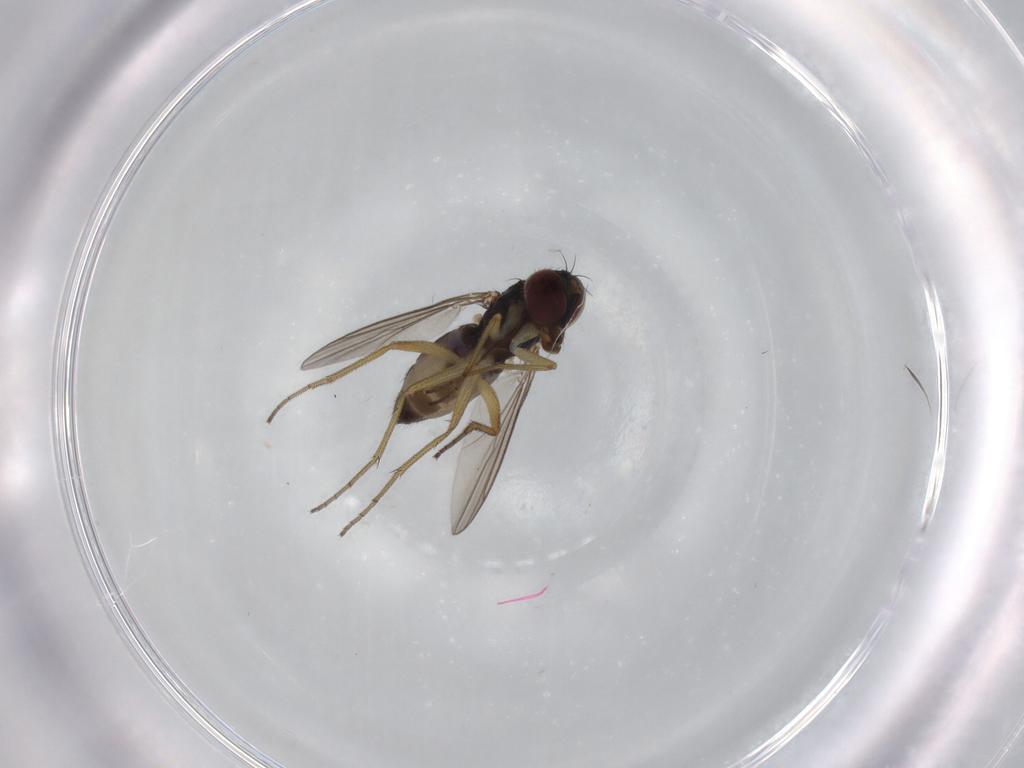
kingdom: Animalia
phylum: Arthropoda
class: Insecta
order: Diptera
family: Dolichopodidae
